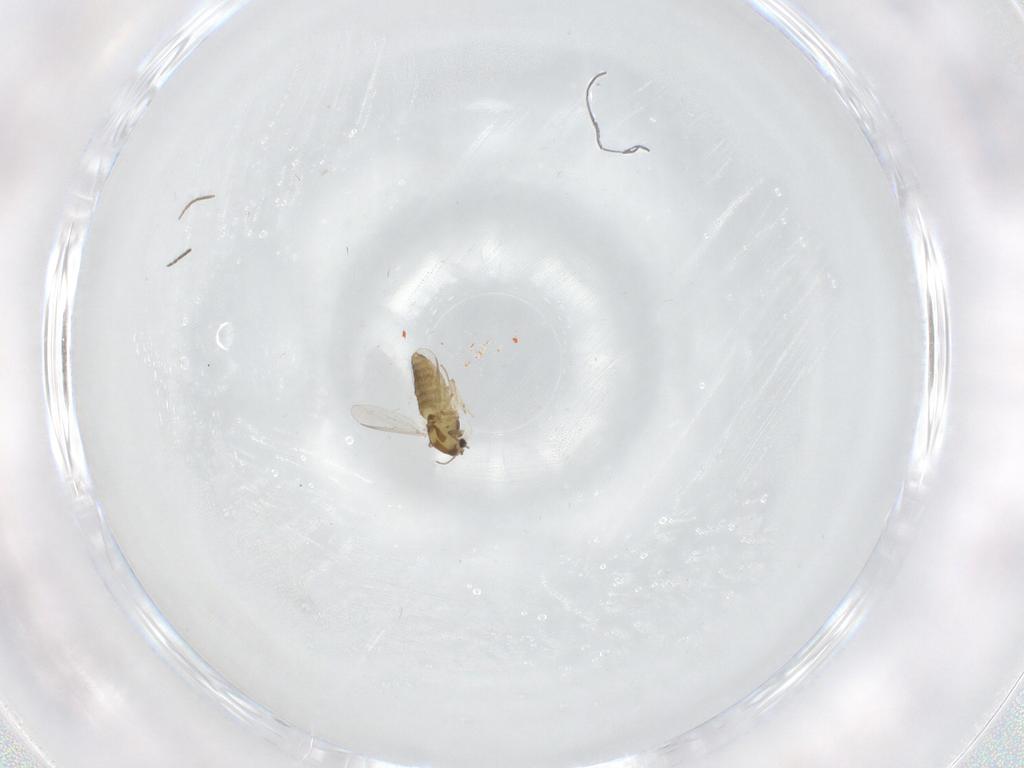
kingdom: Animalia
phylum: Arthropoda
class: Insecta
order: Diptera
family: Chironomidae
